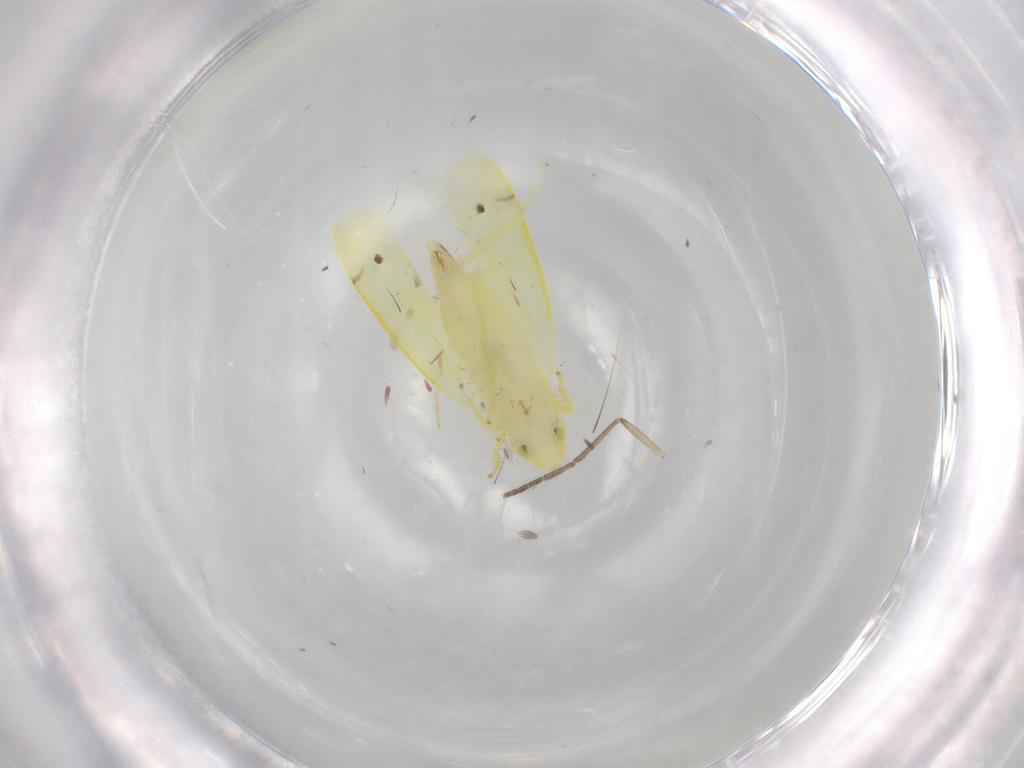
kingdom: Animalia
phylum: Arthropoda
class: Insecta
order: Hemiptera
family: Cicadellidae
